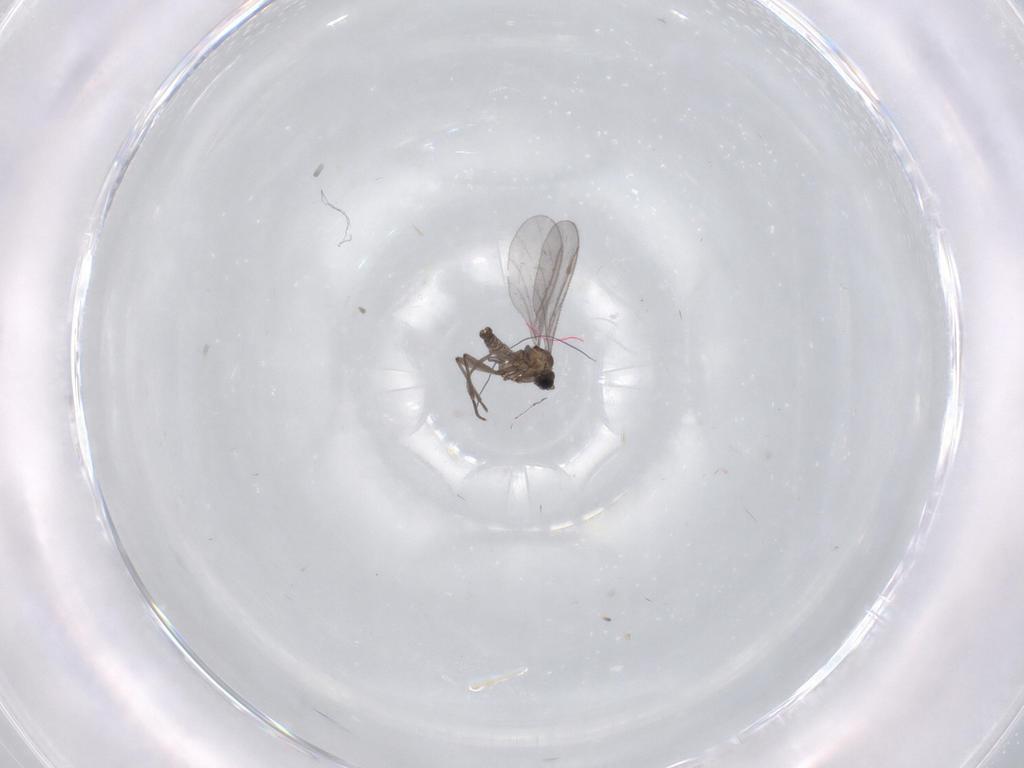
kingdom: Animalia
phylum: Arthropoda
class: Insecta
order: Diptera
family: Sciaridae
